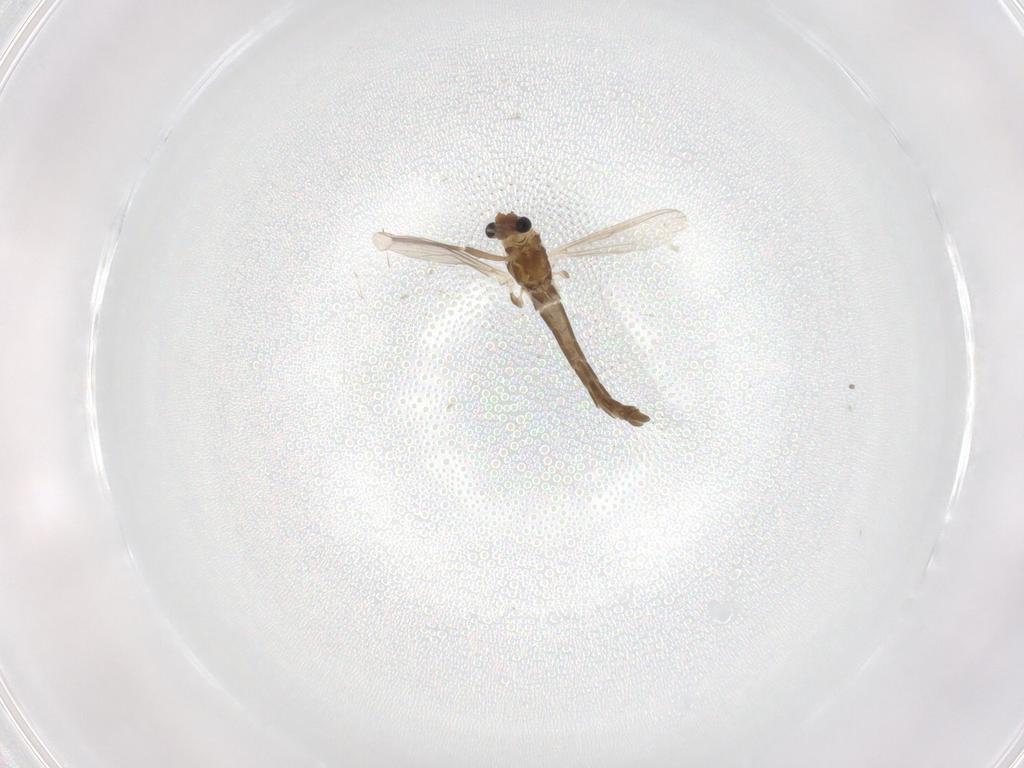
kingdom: Animalia
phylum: Arthropoda
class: Insecta
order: Diptera
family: Chironomidae
